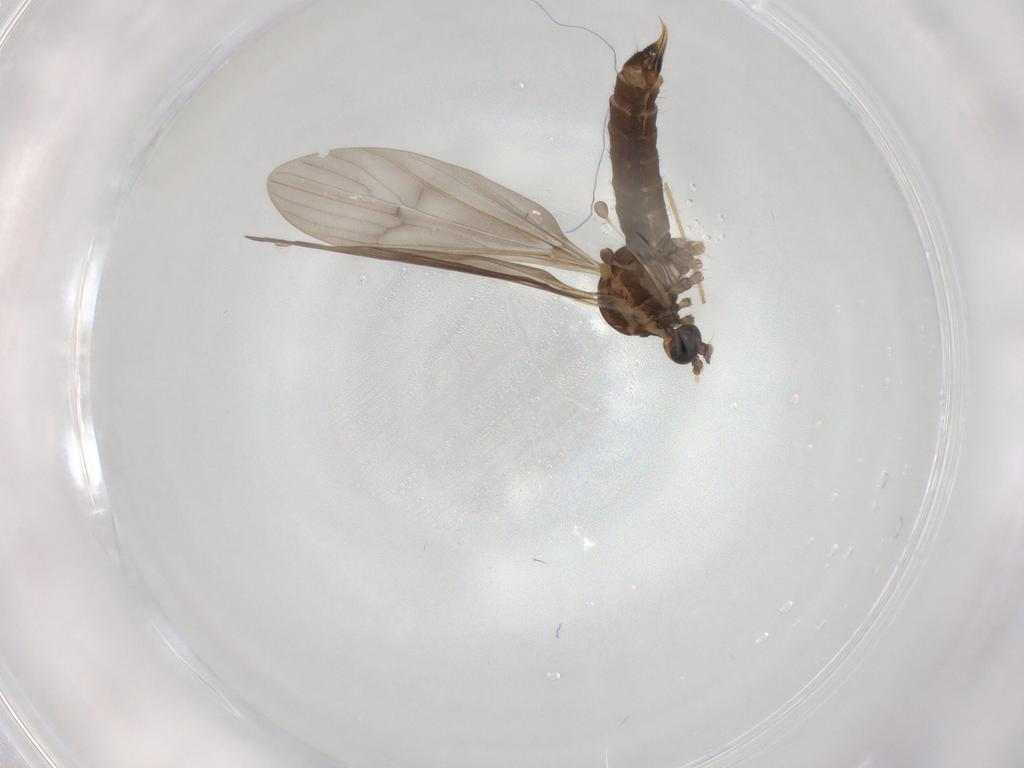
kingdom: Animalia
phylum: Arthropoda
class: Insecta
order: Diptera
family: Limoniidae
